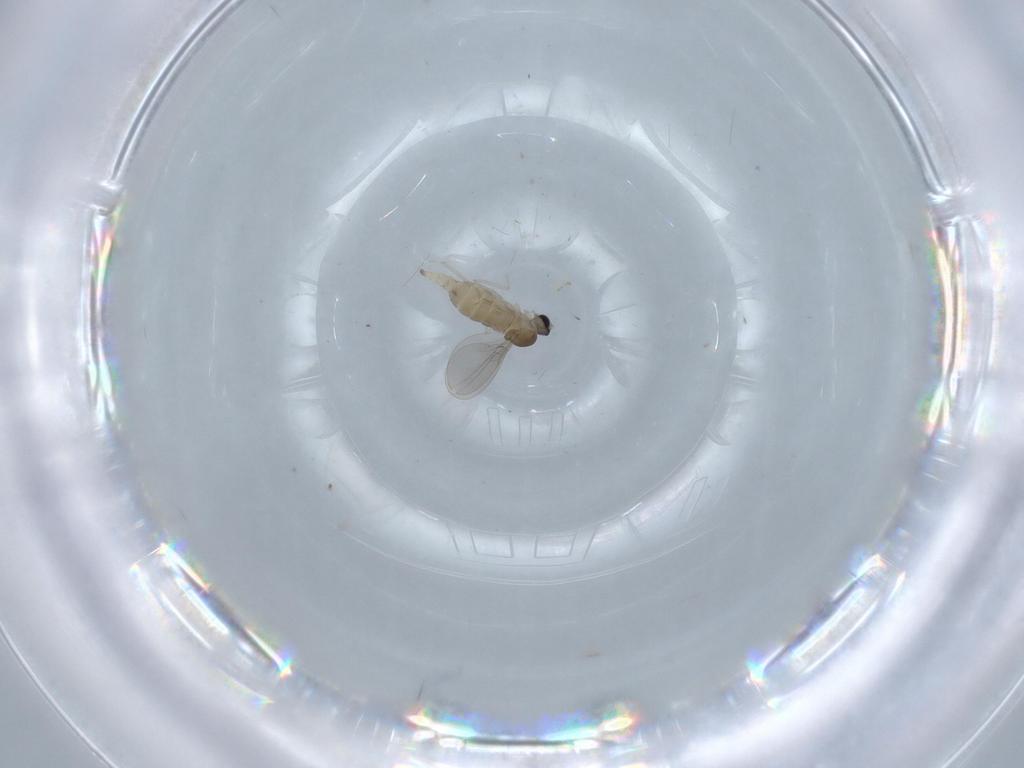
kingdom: Animalia
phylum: Arthropoda
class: Insecta
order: Diptera
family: Cecidomyiidae
